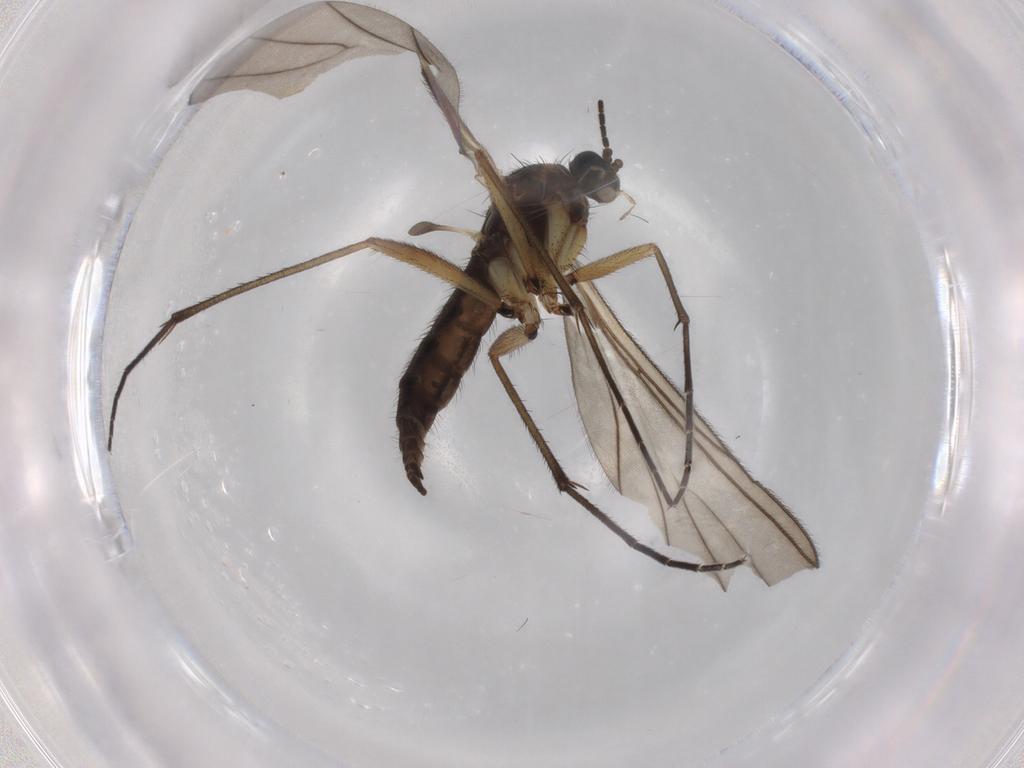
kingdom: Animalia
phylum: Arthropoda
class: Insecta
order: Diptera
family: Sciaridae
